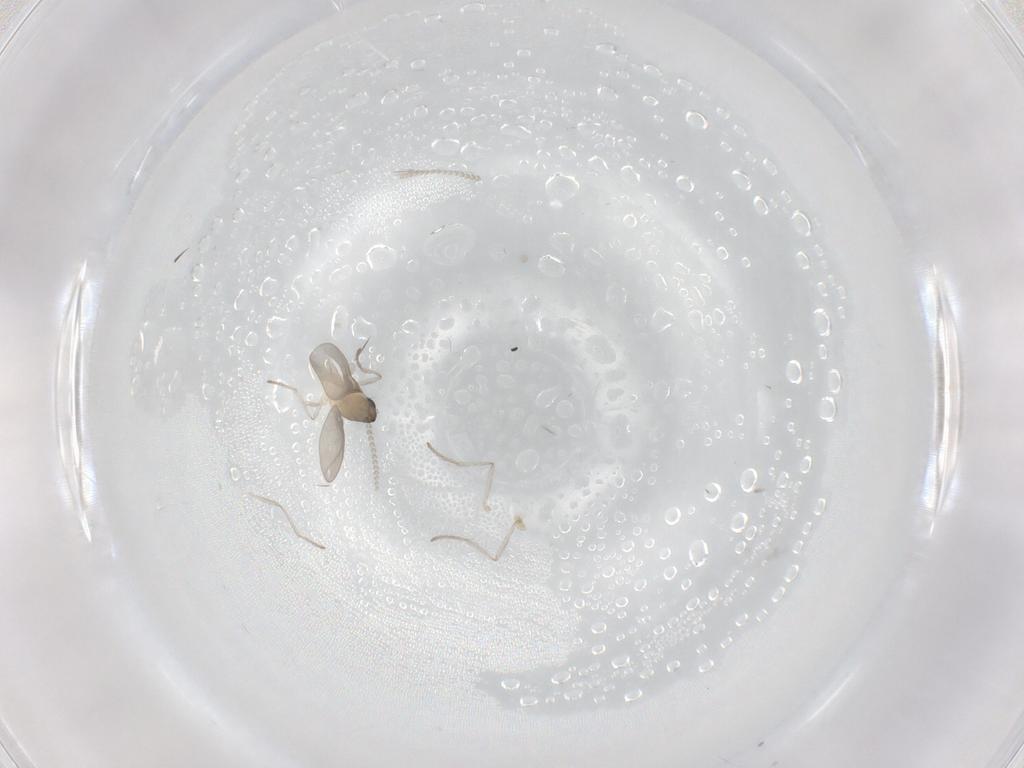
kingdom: Animalia
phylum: Arthropoda
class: Insecta
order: Diptera
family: Cecidomyiidae
